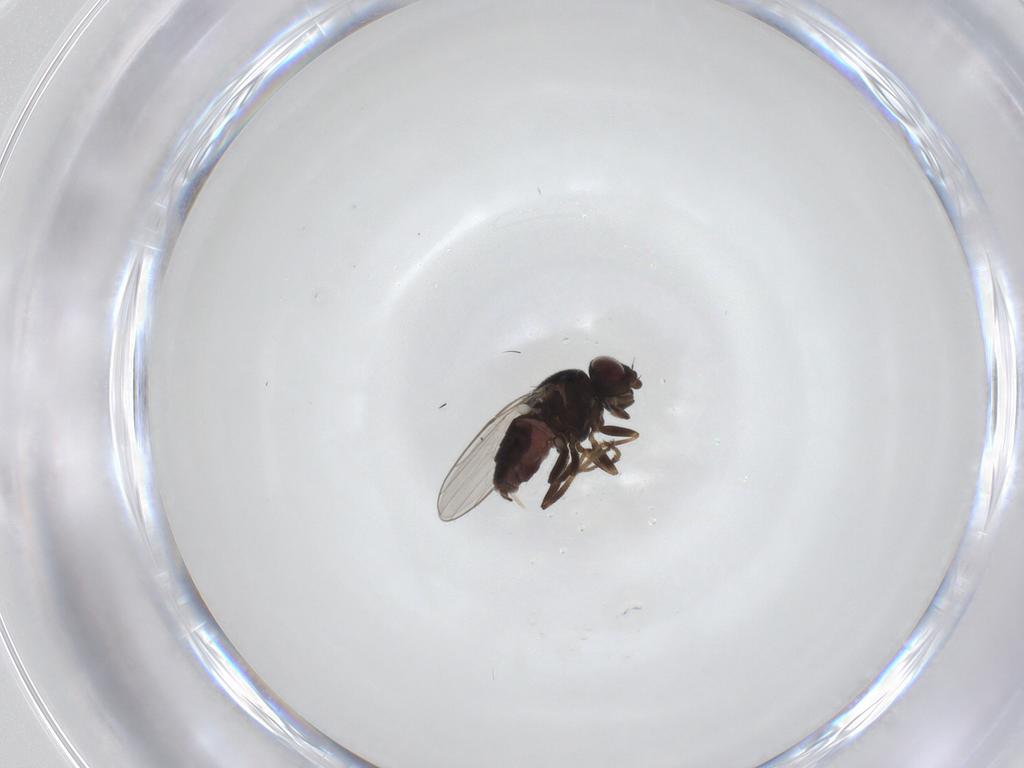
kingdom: Animalia
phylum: Arthropoda
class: Insecta
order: Diptera
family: Chloropidae
